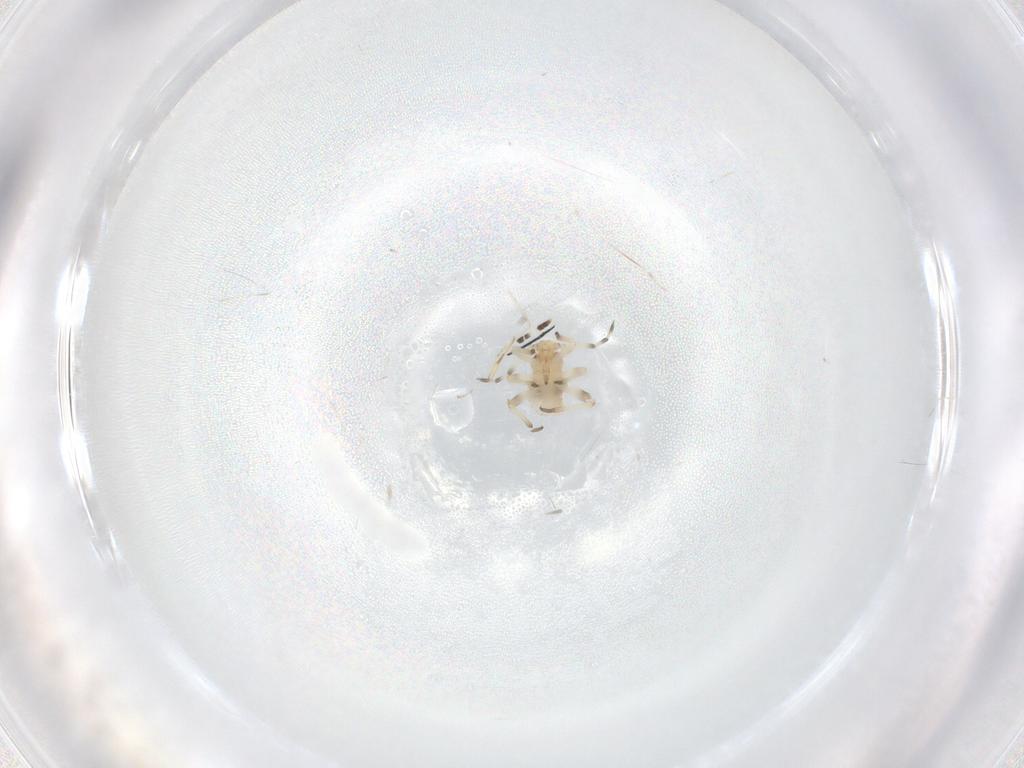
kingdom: Animalia
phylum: Arthropoda
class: Insecta
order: Hemiptera
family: Aphididae
